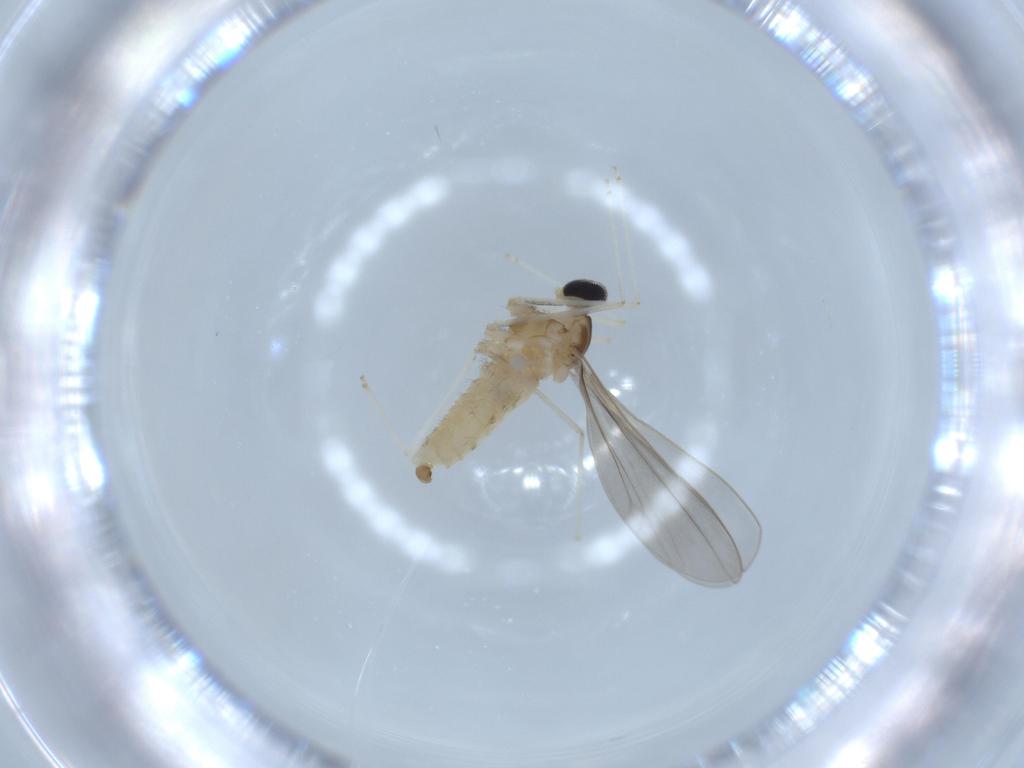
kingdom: Animalia
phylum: Arthropoda
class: Insecta
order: Diptera
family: Cecidomyiidae
